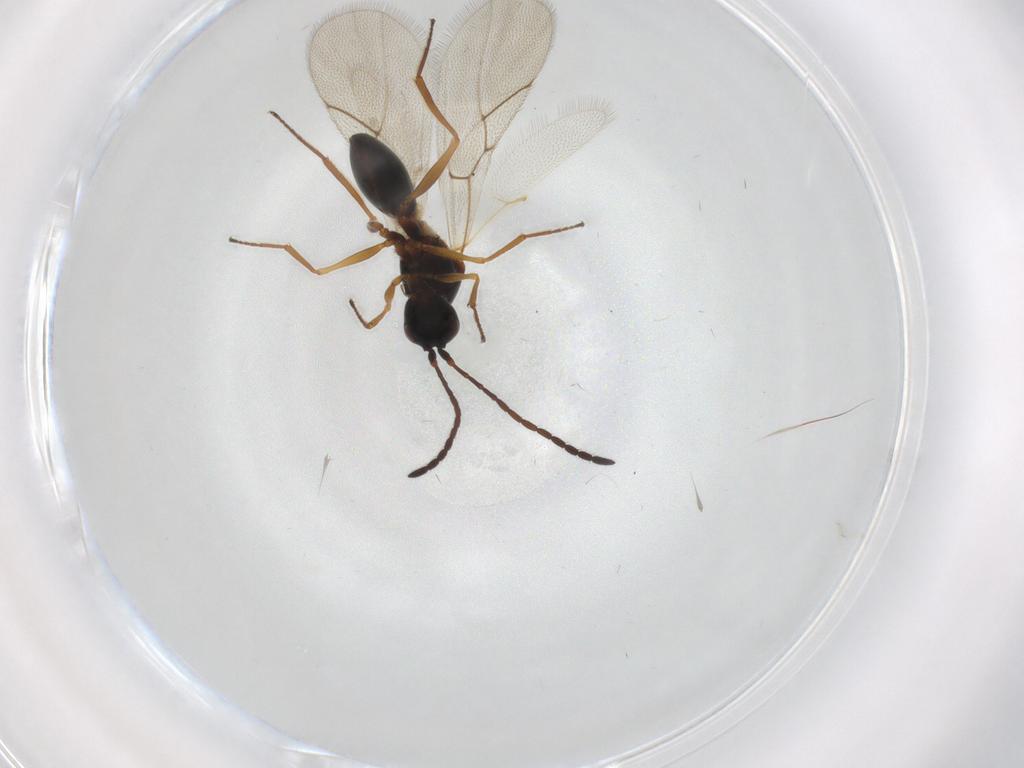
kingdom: Animalia
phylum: Arthropoda
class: Insecta
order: Hymenoptera
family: Figitidae
